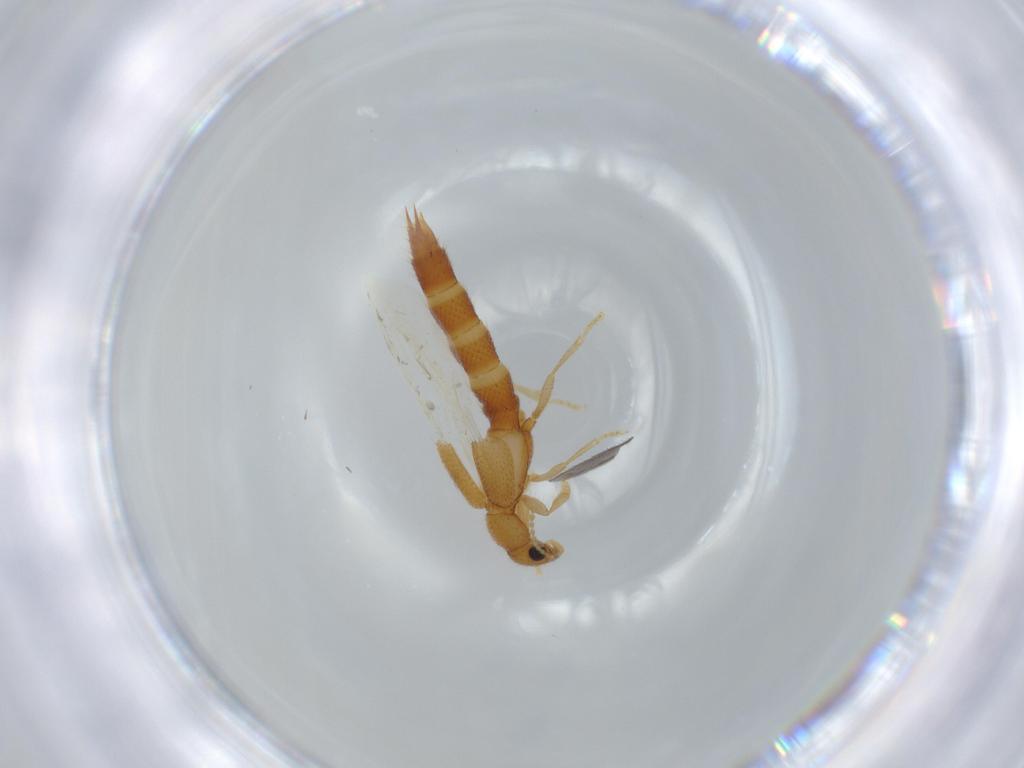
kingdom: Animalia
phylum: Arthropoda
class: Insecta
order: Coleoptera
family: Staphylinidae
